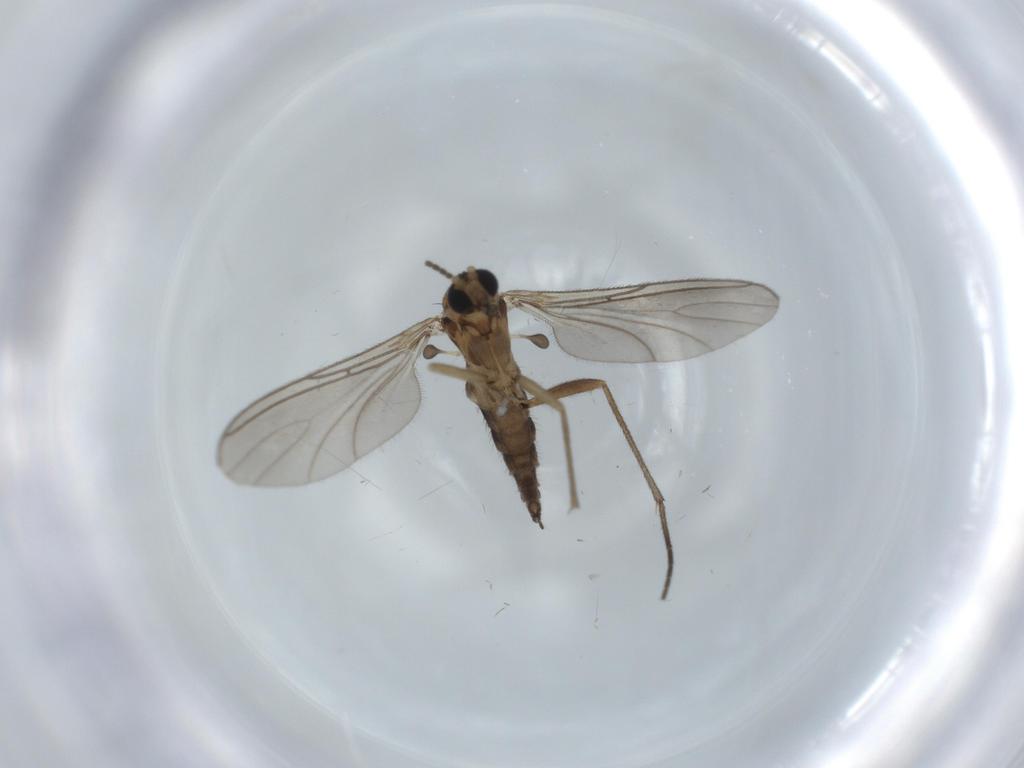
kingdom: Animalia
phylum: Arthropoda
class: Insecta
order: Diptera
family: Sciaridae
